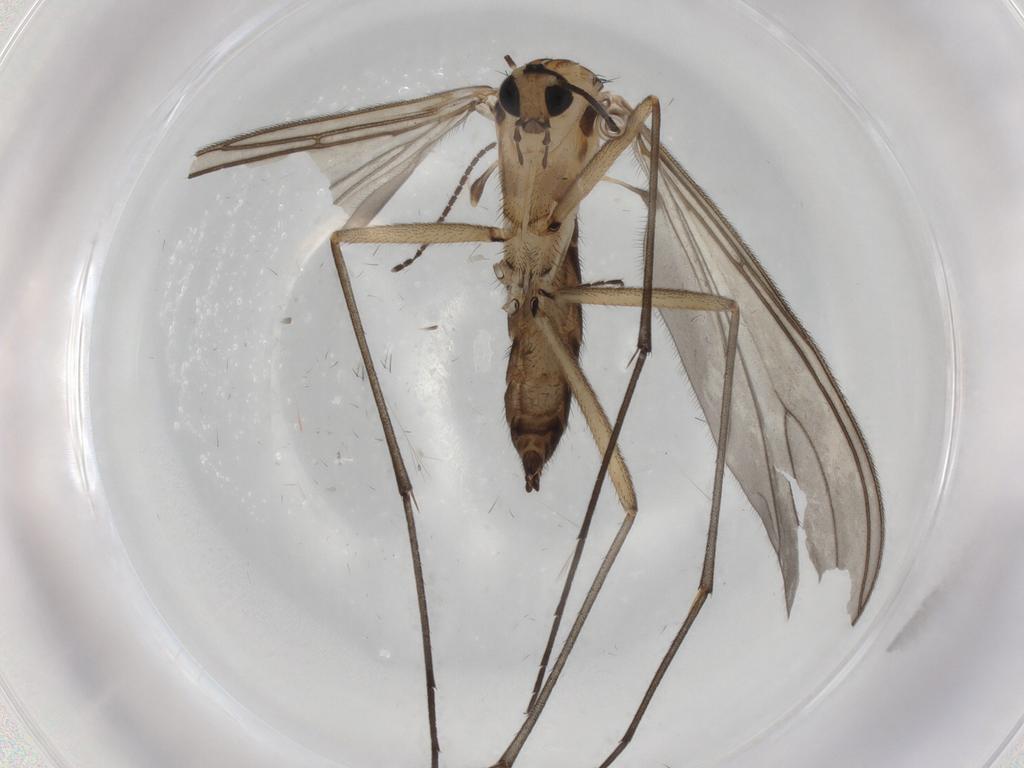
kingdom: Animalia
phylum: Arthropoda
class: Insecta
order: Diptera
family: Sciaridae
